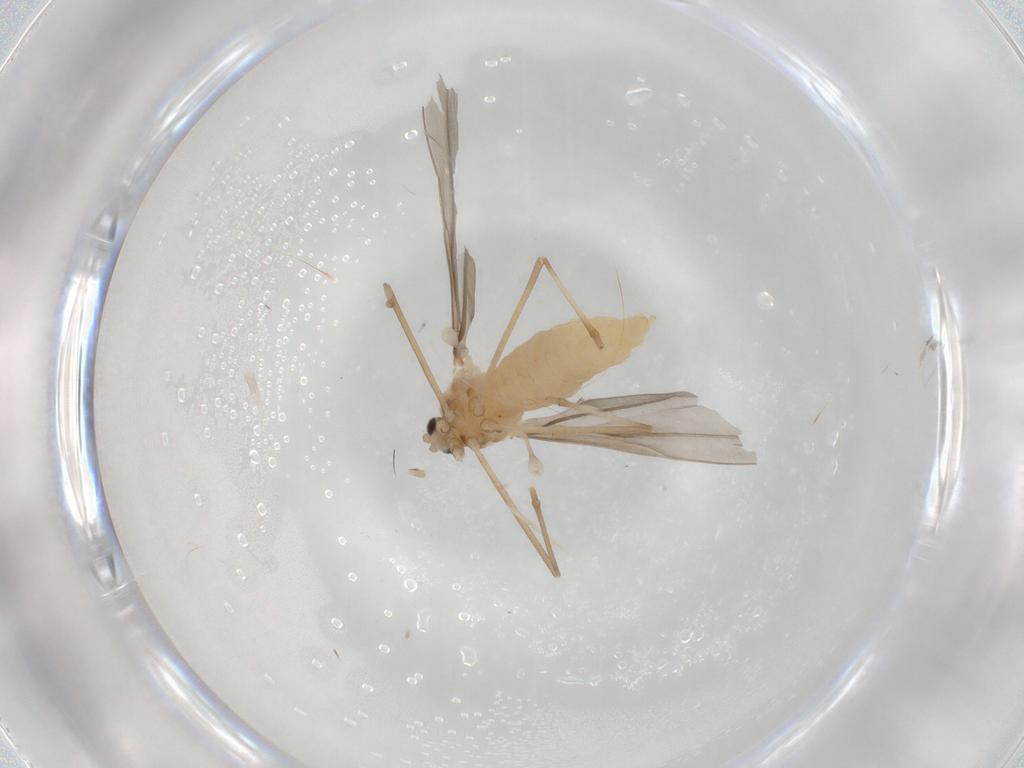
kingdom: Animalia
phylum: Arthropoda
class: Insecta
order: Diptera
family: Cecidomyiidae
